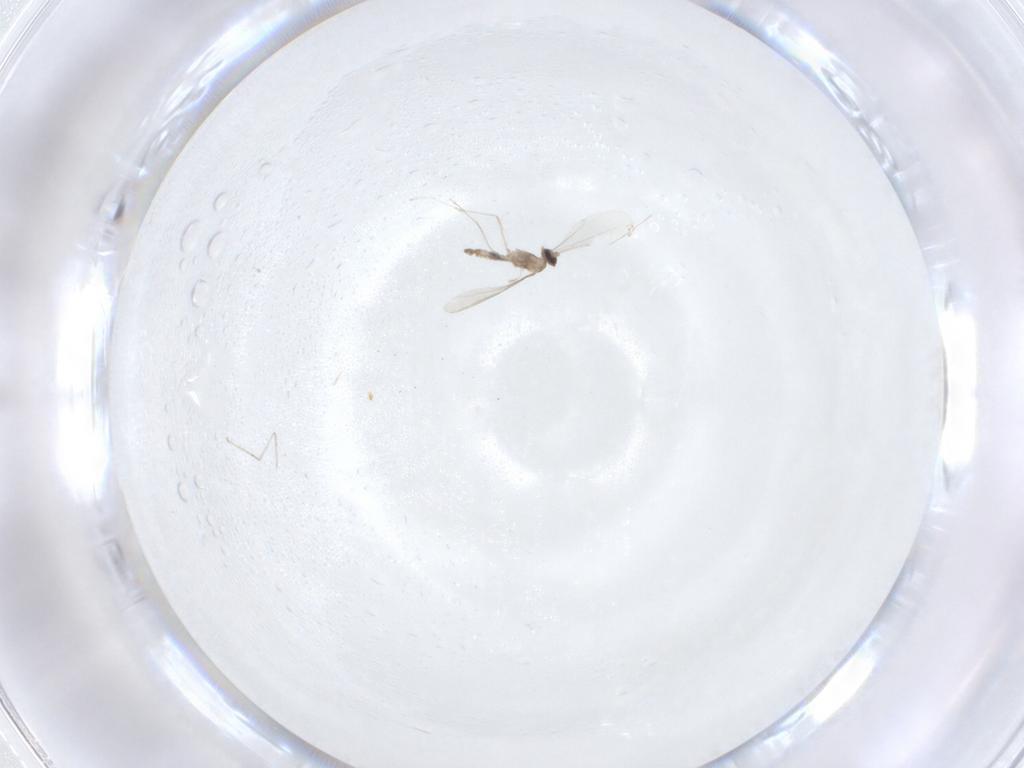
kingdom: Animalia
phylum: Arthropoda
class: Insecta
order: Diptera
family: Cecidomyiidae
